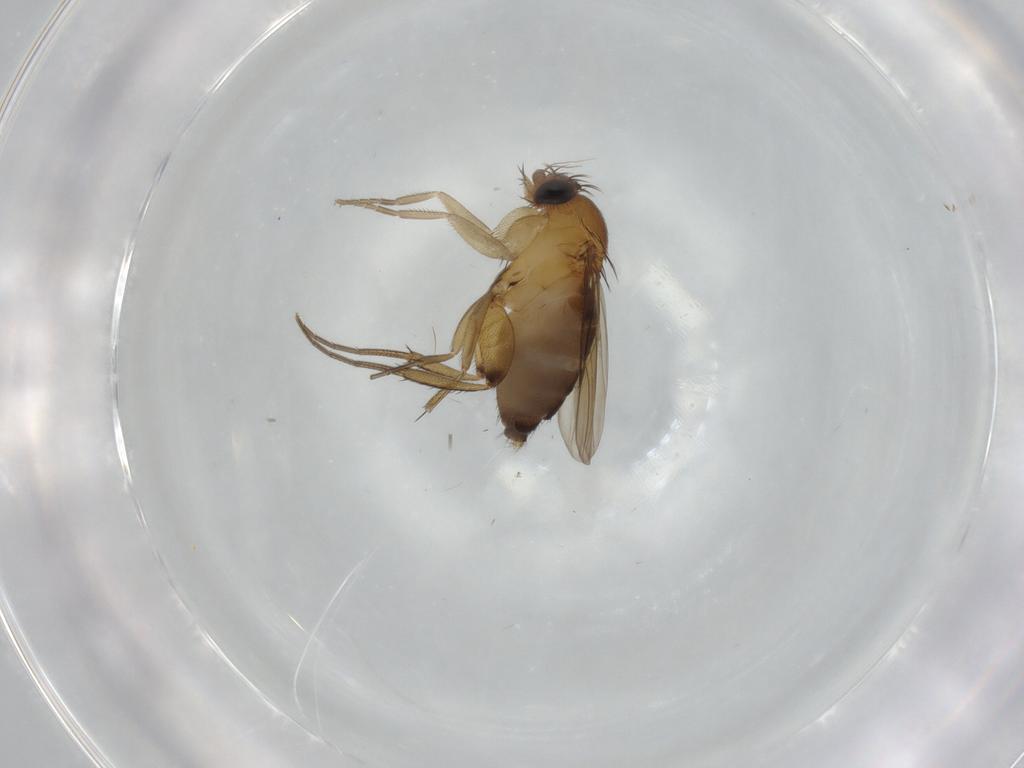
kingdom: Animalia
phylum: Arthropoda
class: Insecta
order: Diptera
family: Phoridae
